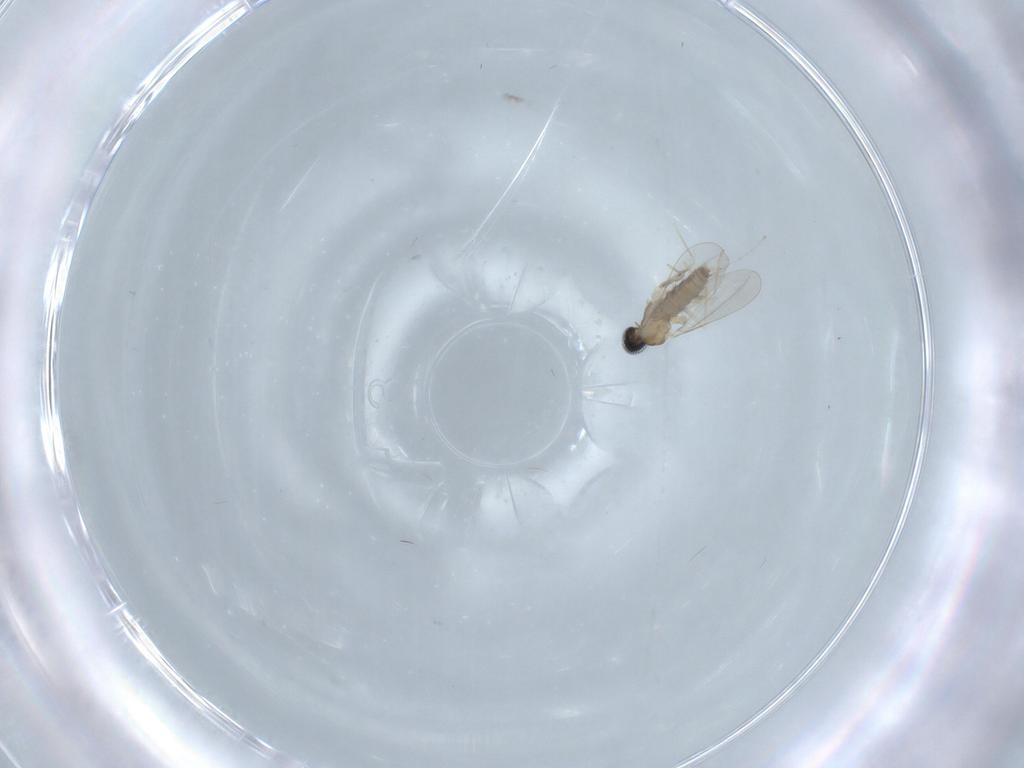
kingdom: Animalia
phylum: Arthropoda
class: Insecta
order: Diptera
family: Cecidomyiidae
